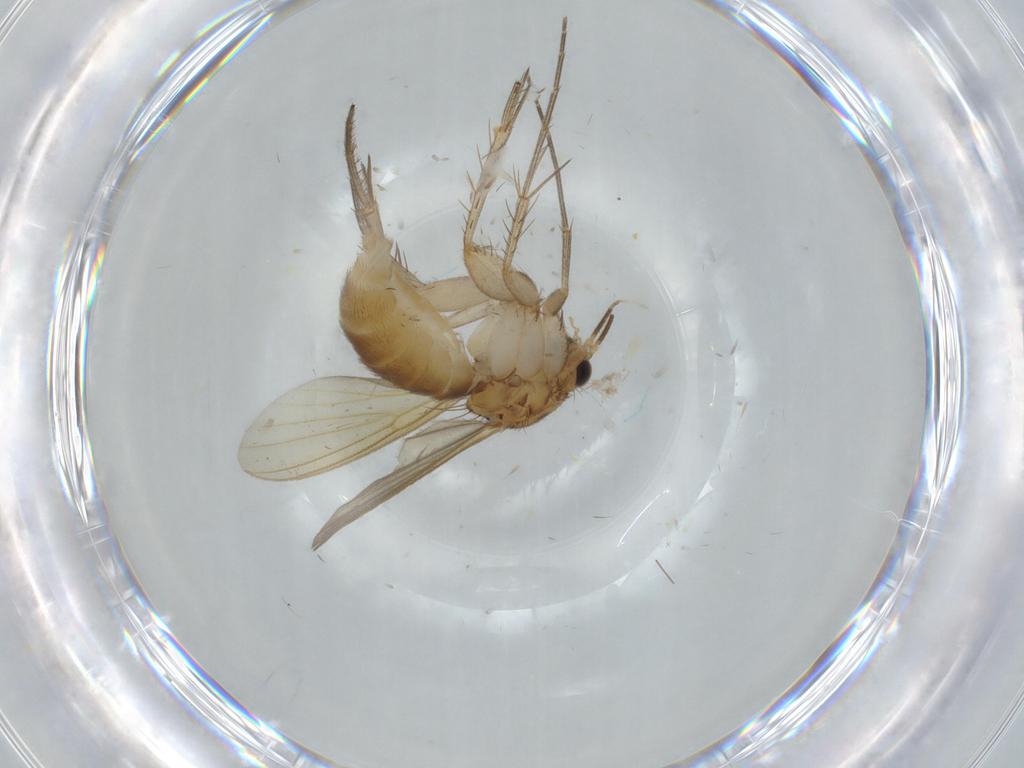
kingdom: Animalia
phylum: Arthropoda
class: Insecta
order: Diptera
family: Mycetophilidae
